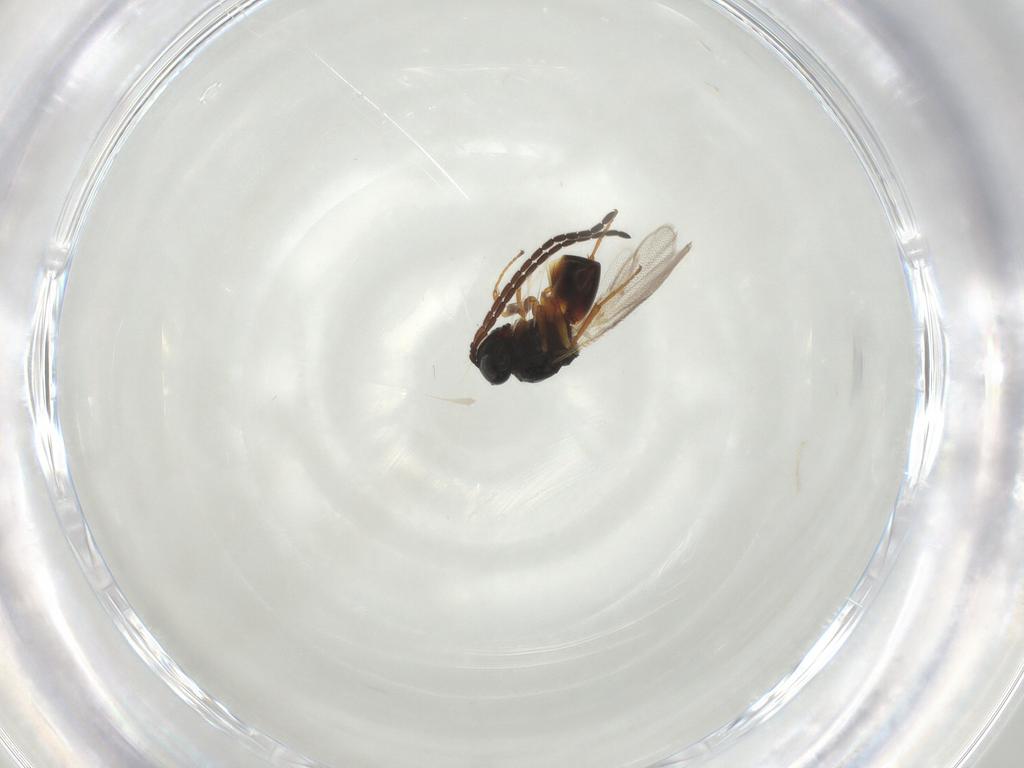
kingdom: Animalia
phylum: Arthropoda
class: Insecta
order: Hymenoptera
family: Figitidae
